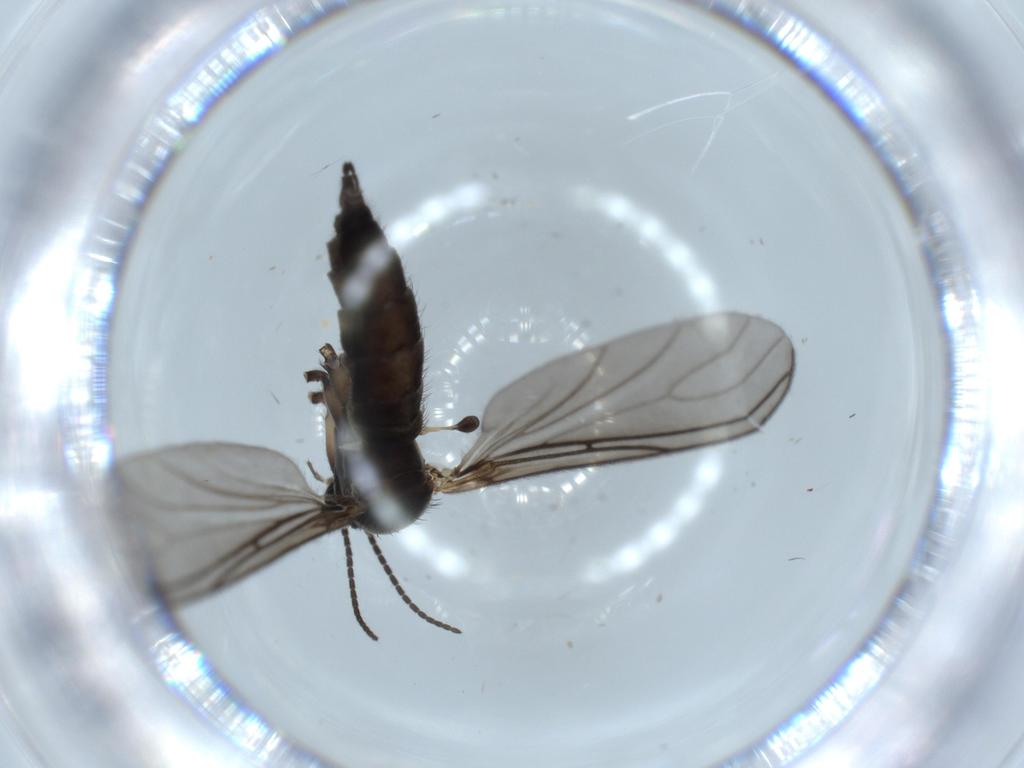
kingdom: Animalia
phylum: Arthropoda
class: Insecta
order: Diptera
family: Sciaridae
